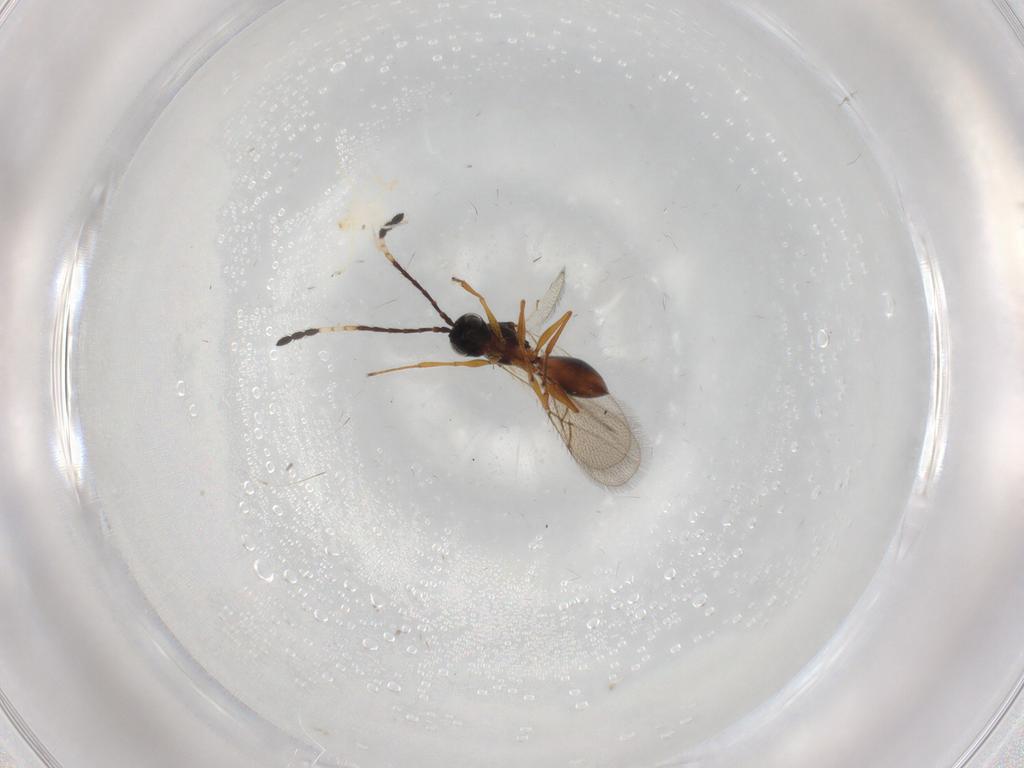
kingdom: Animalia
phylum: Arthropoda
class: Insecta
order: Hymenoptera
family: Figitidae
